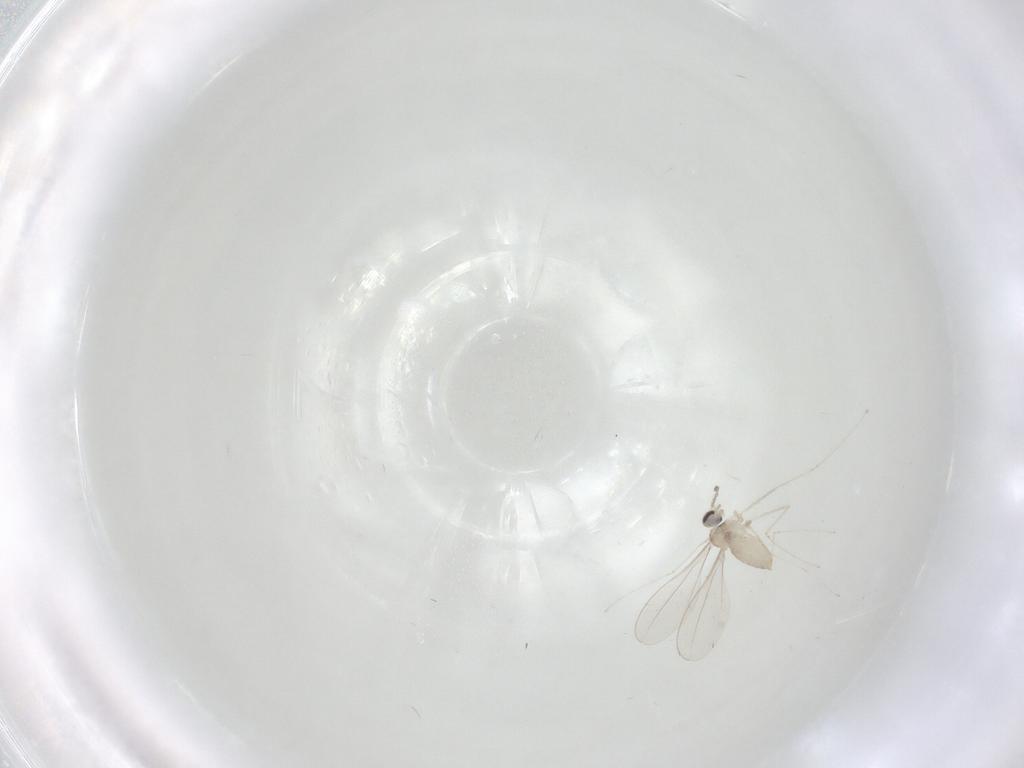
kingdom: Animalia
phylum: Arthropoda
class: Insecta
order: Diptera
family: Cecidomyiidae
